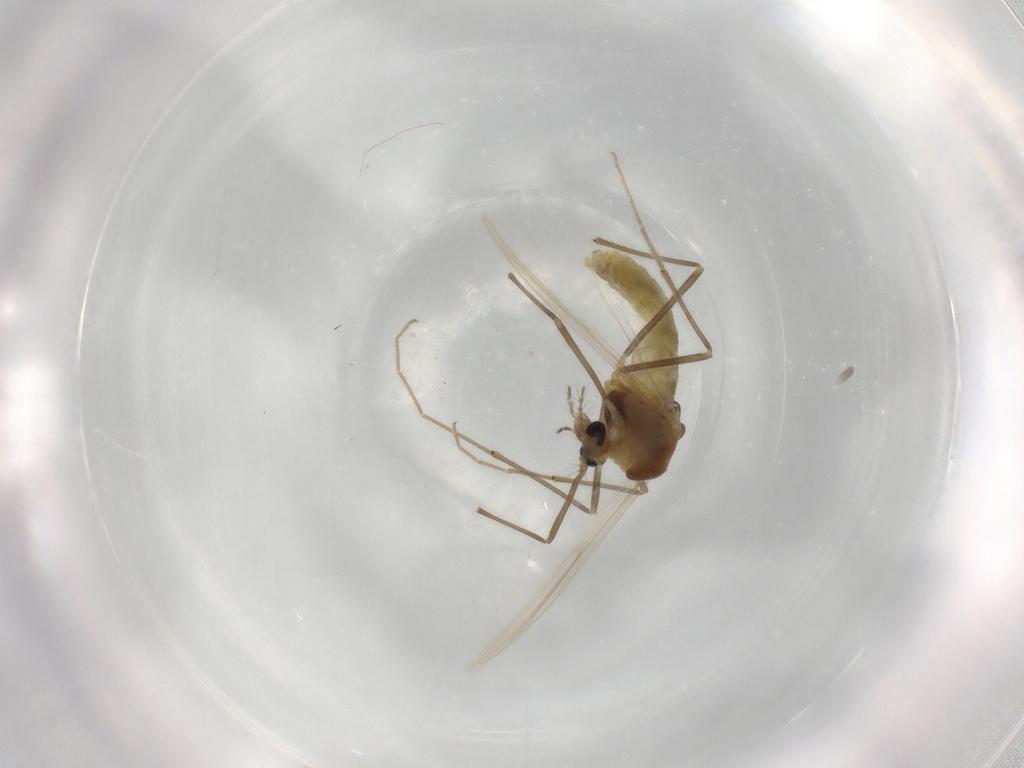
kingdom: Animalia
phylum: Arthropoda
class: Insecta
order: Diptera
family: Chironomidae
